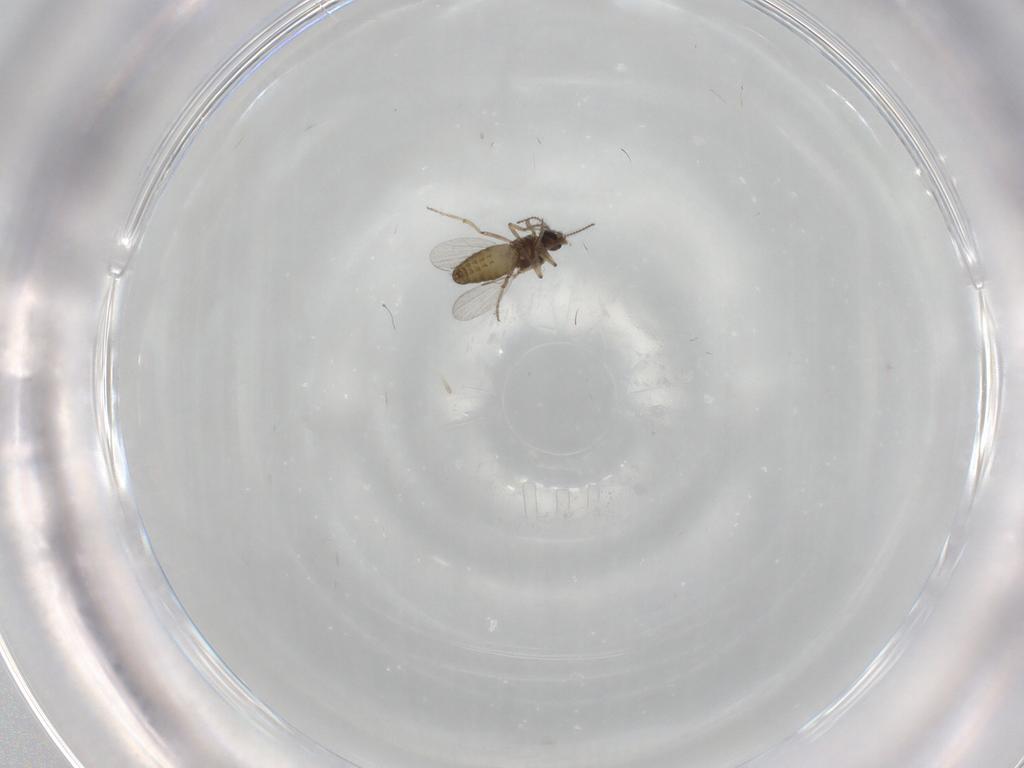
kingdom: Animalia
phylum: Arthropoda
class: Insecta
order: Diptera
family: Ceratopogonidae
